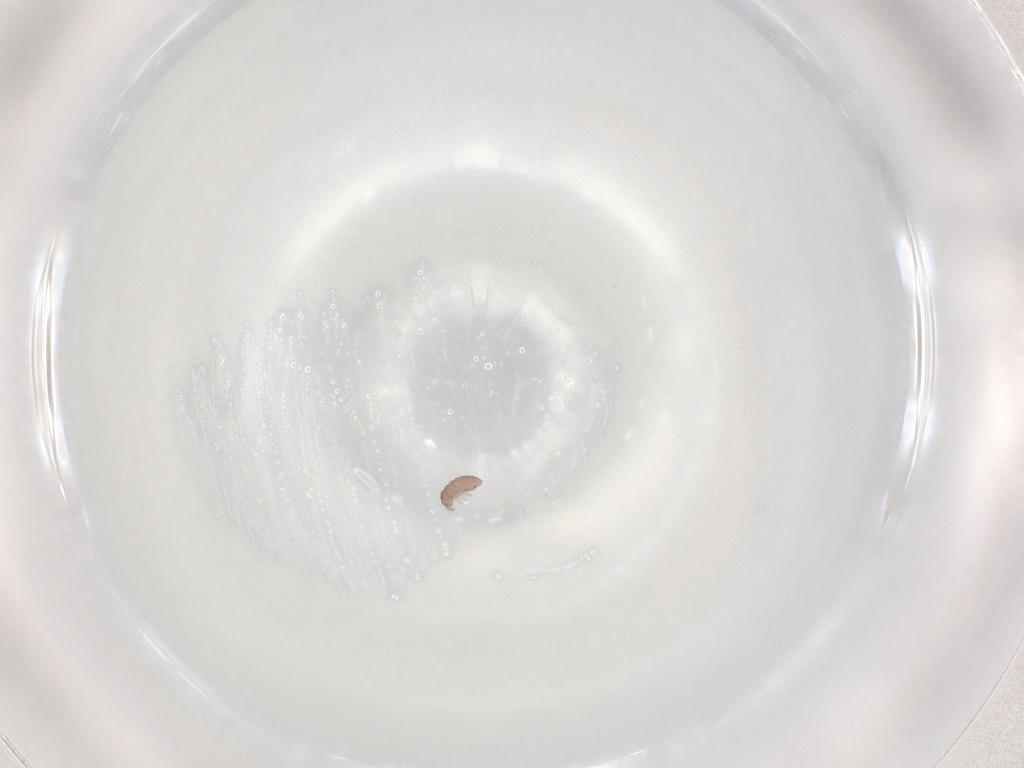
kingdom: Animalia
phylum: Arthropoda
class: Collembola
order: Poduromorpha
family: Hypogastruridae
